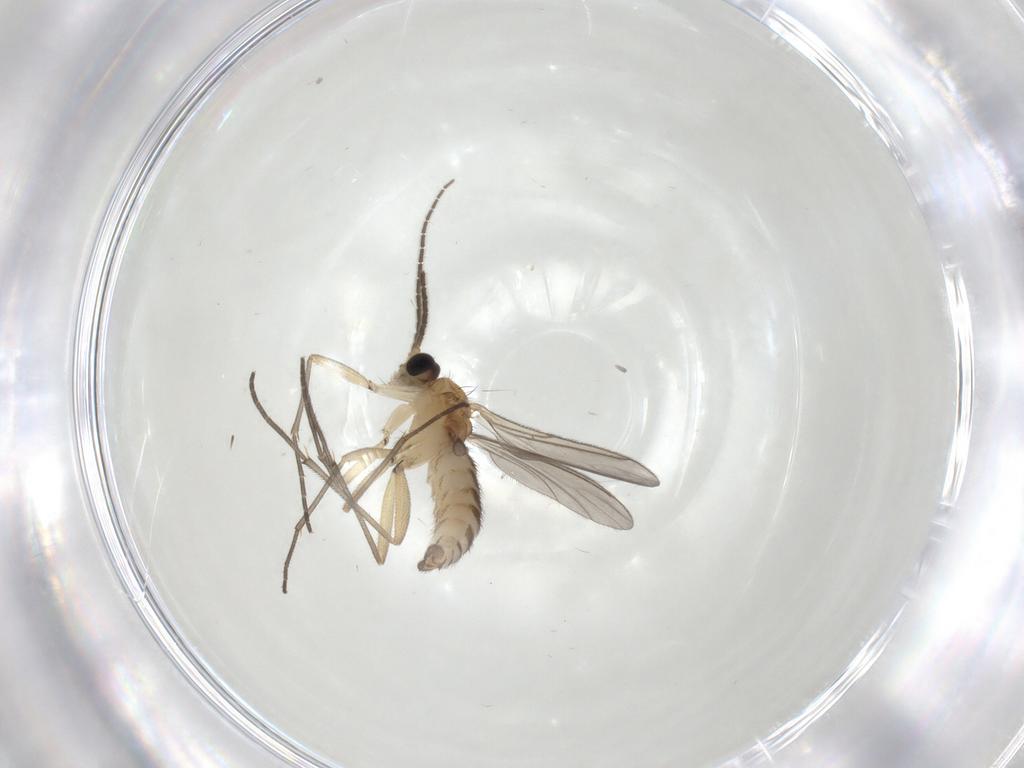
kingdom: Animalia
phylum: Arthropoda
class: Insecta
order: Diptera
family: Sciaridae
